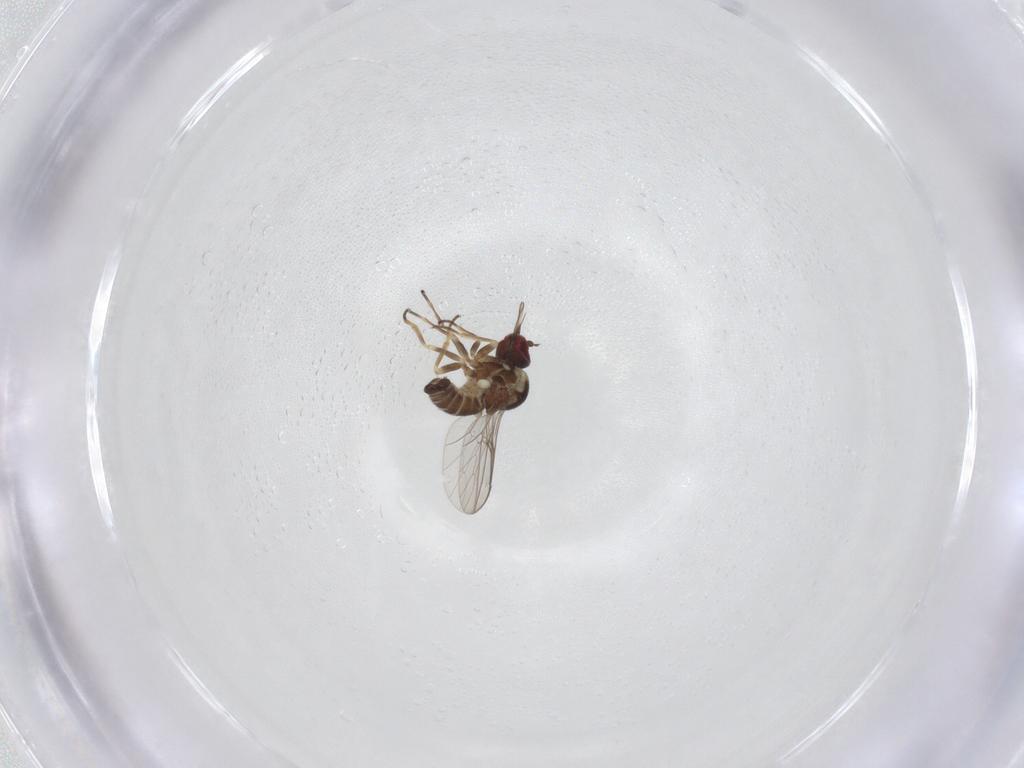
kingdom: Animalia
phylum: Arthropoda
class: Insecta
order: Diptera
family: Bombyliidae
